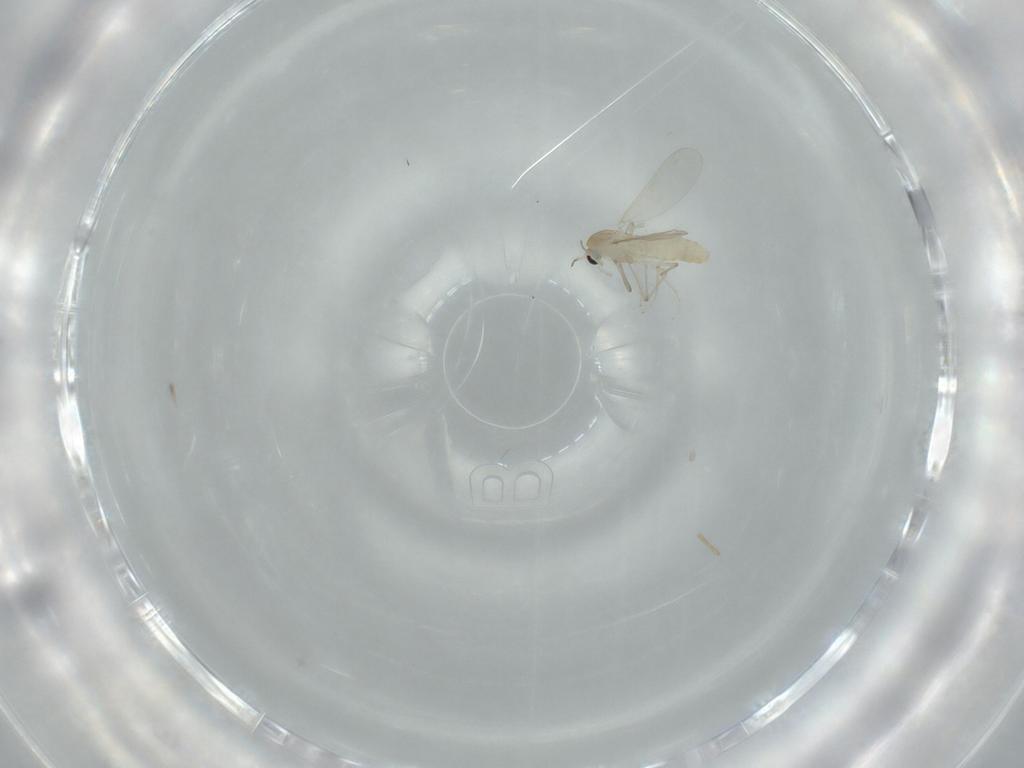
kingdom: Animalia
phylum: Arthropoda
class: Insecta
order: Diptera
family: Chironomidae
